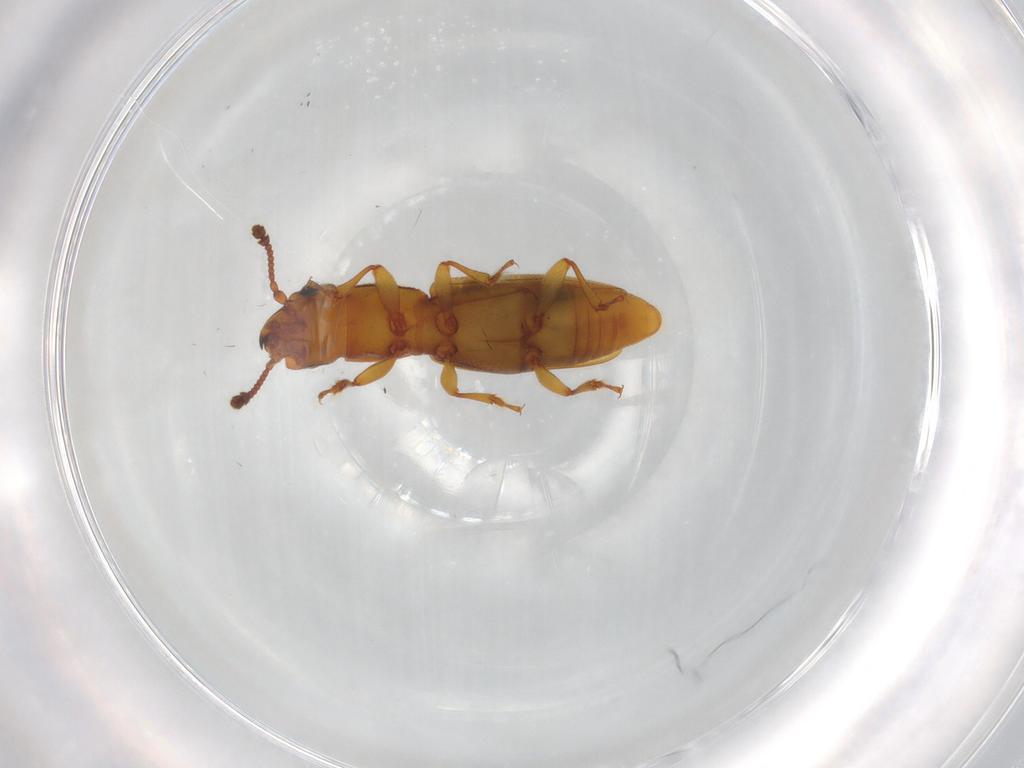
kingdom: Animalia
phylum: Arthropoda
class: Insecta
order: Coleoptera
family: Monotomidae
